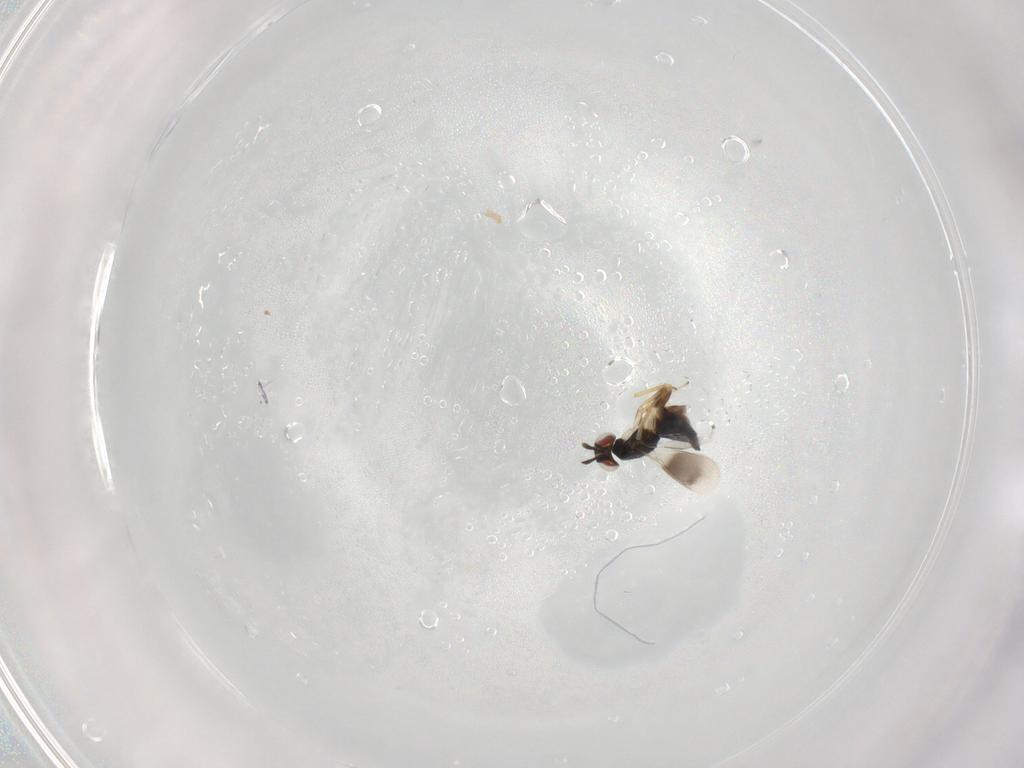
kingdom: Animalia
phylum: Arthropoda
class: Insecta
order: Hymenoptera
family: Eulophidae
